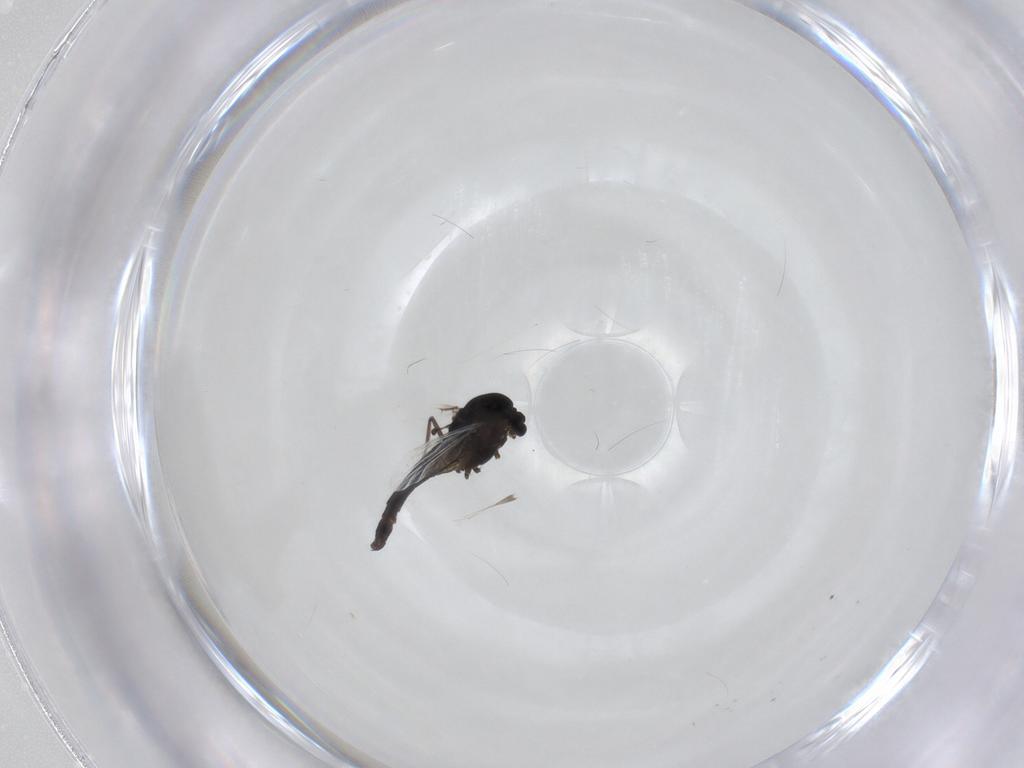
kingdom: Animalia
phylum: Arthropoda
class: Insecta
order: Diptera
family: Hybotidae
